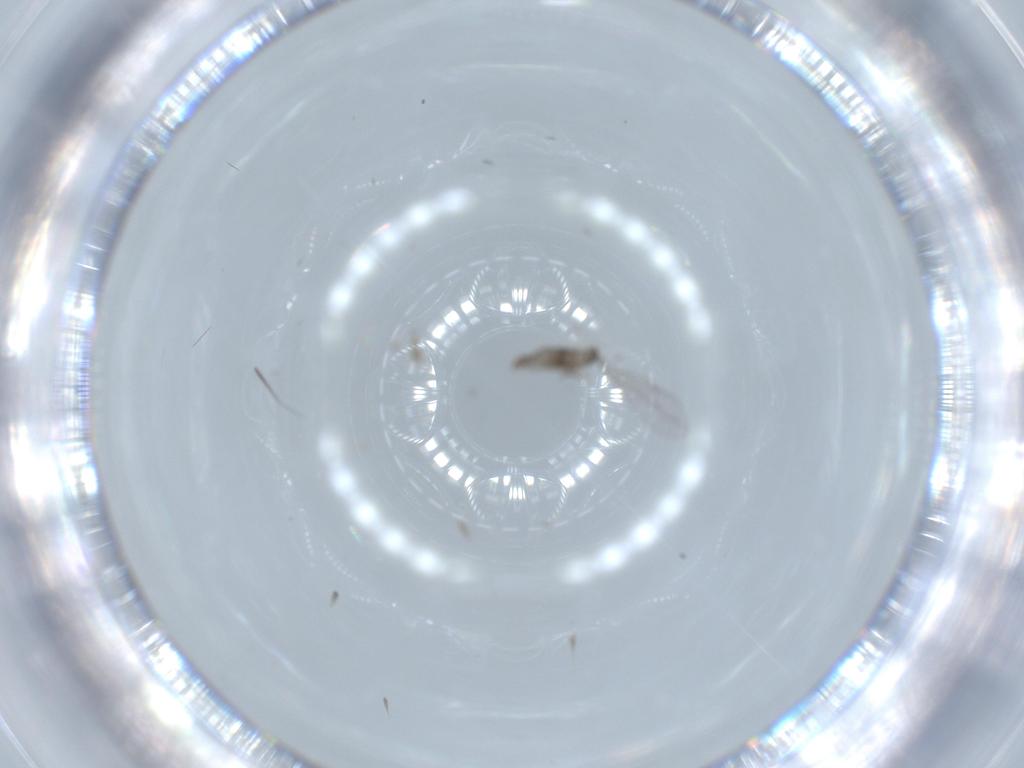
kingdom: Animalia
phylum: Arthropoda
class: Insecta
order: Diptera
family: Cecidomyiidae
